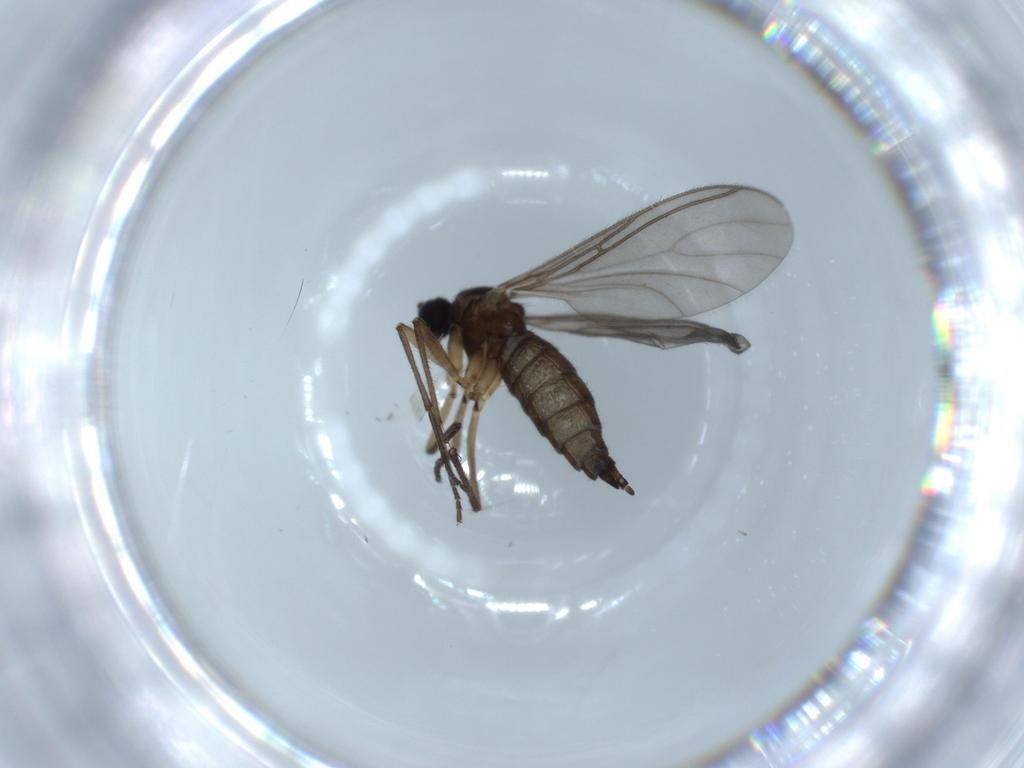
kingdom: Animalia
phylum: Arthropoda
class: Insecta
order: Diptera
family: Sciaridae
